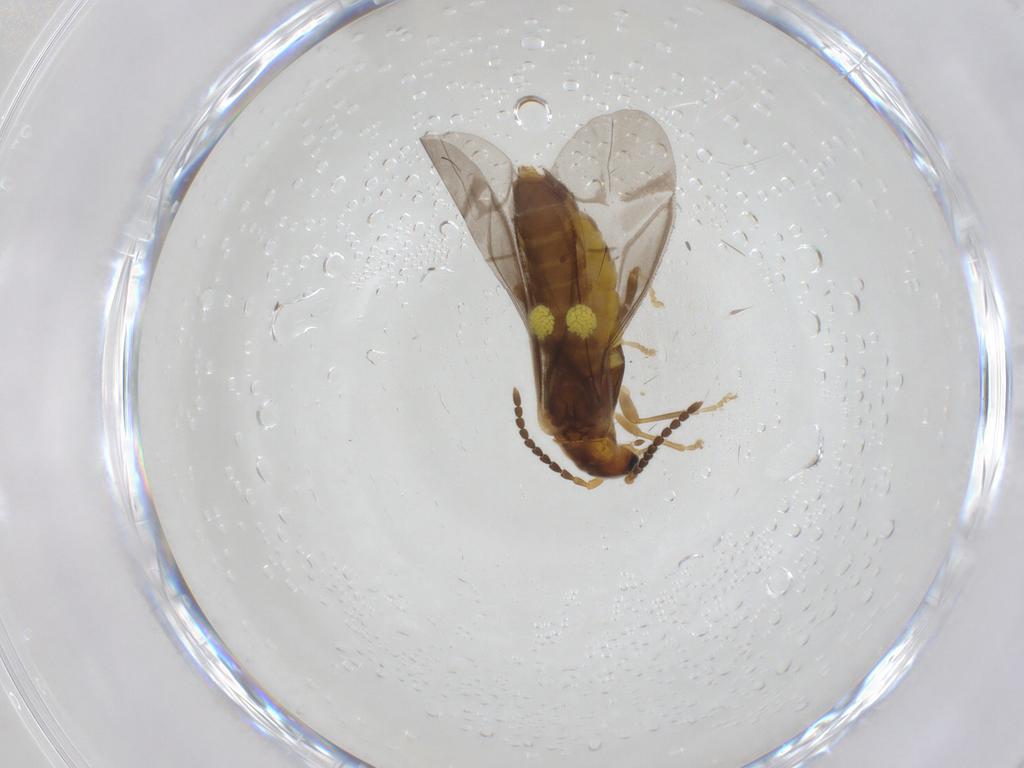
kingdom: Animalia
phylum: Arthropoda
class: Insecta
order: Coleoptera
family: Cantharidae
